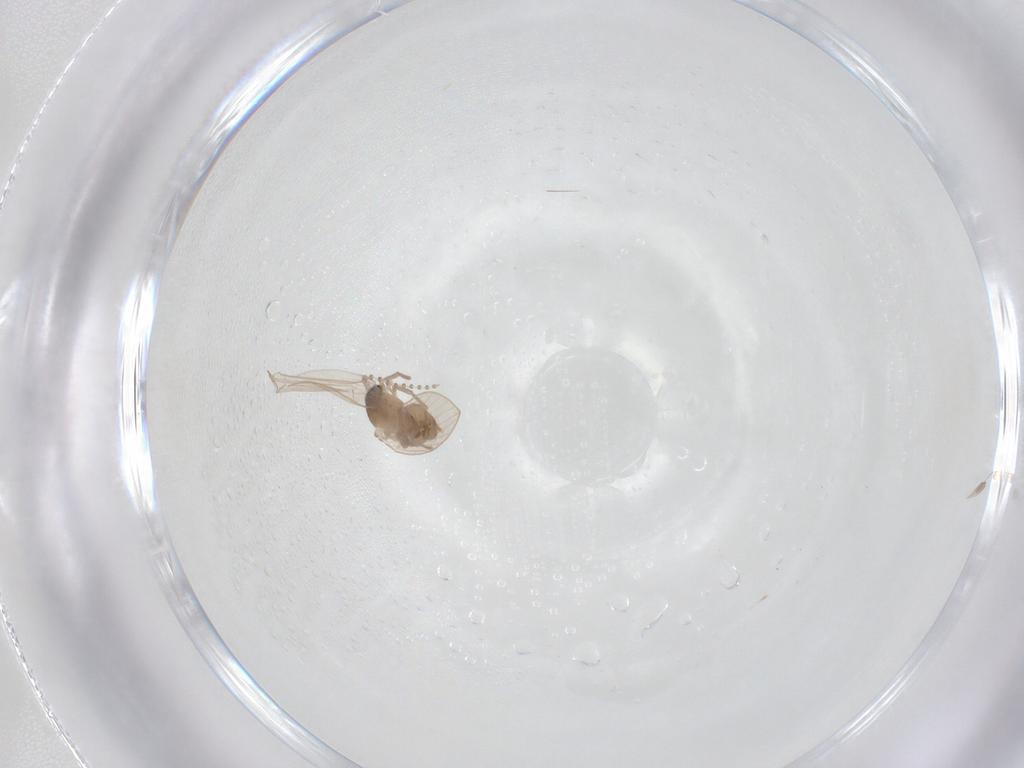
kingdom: Animalia
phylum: Arthropoda
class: Insecta
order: Diptera
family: Psychodidae
